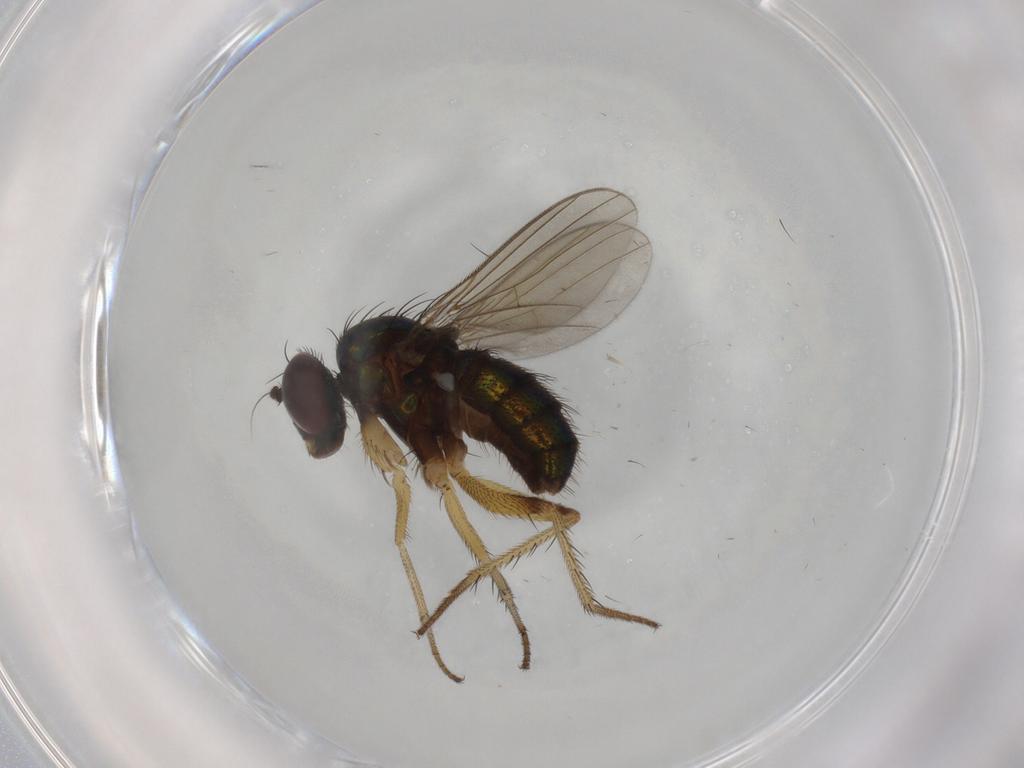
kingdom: Animalia
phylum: Arthropoda
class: Insecta
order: Diptera
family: Dolichopodidae
